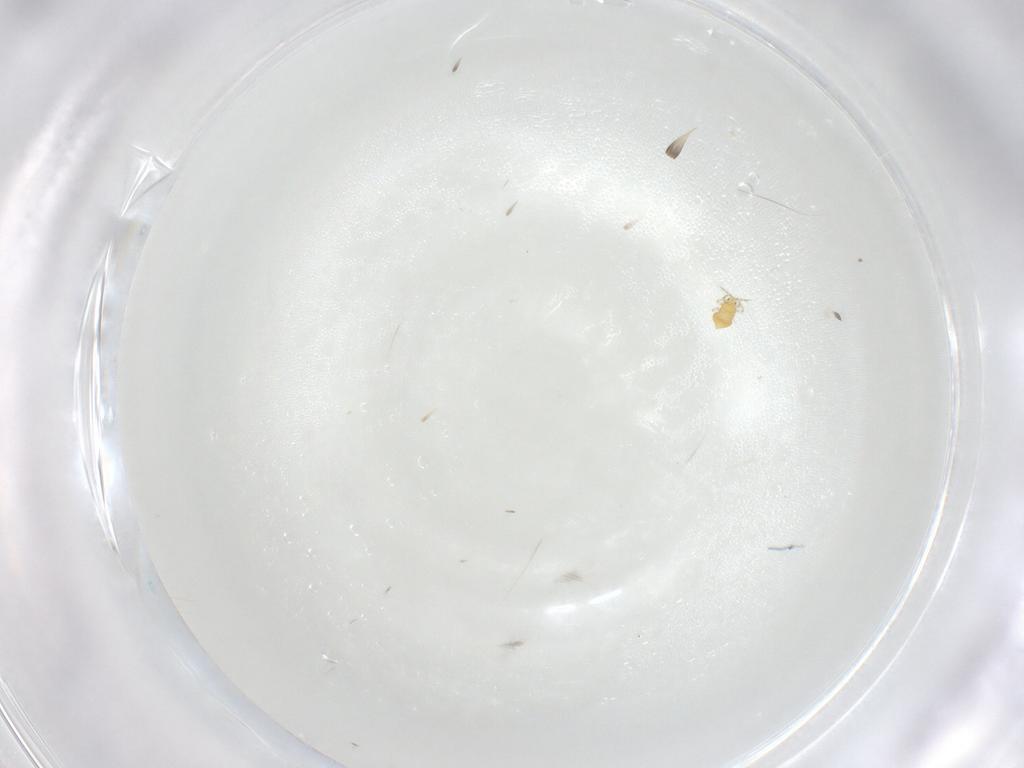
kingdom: Animalia
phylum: Arthropoda
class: Insecta
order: Thysanoptera
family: Thripidae
